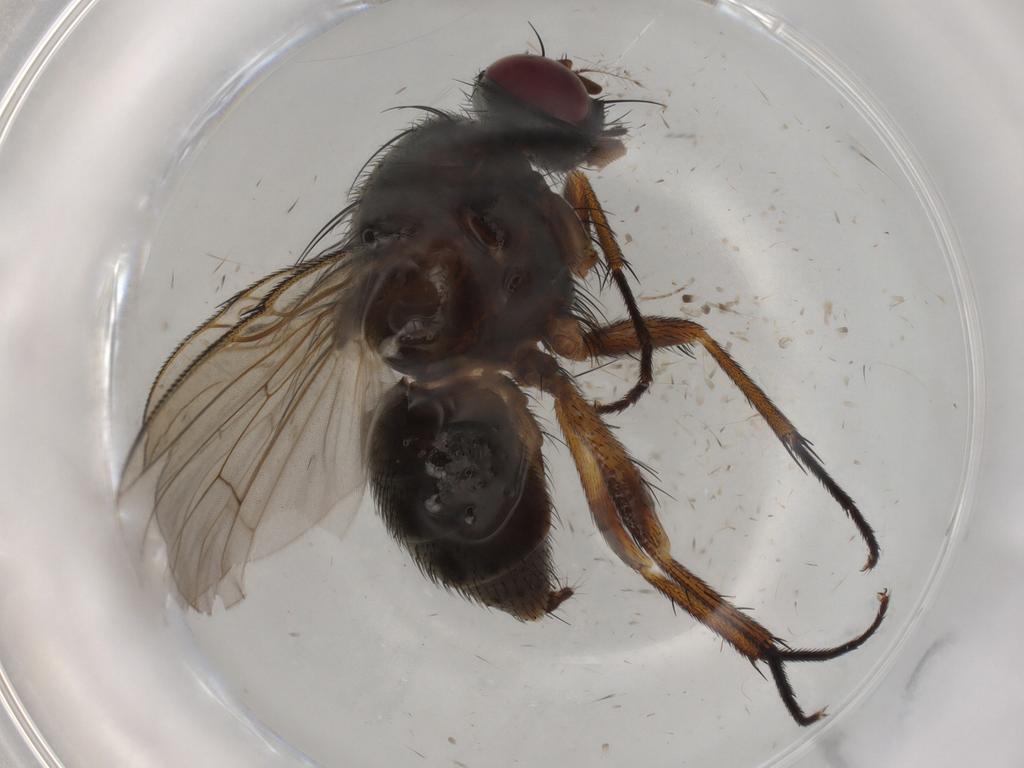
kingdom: Animalia
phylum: Arthropoda
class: Insecta
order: Diptera
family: Cecidomyiidae
